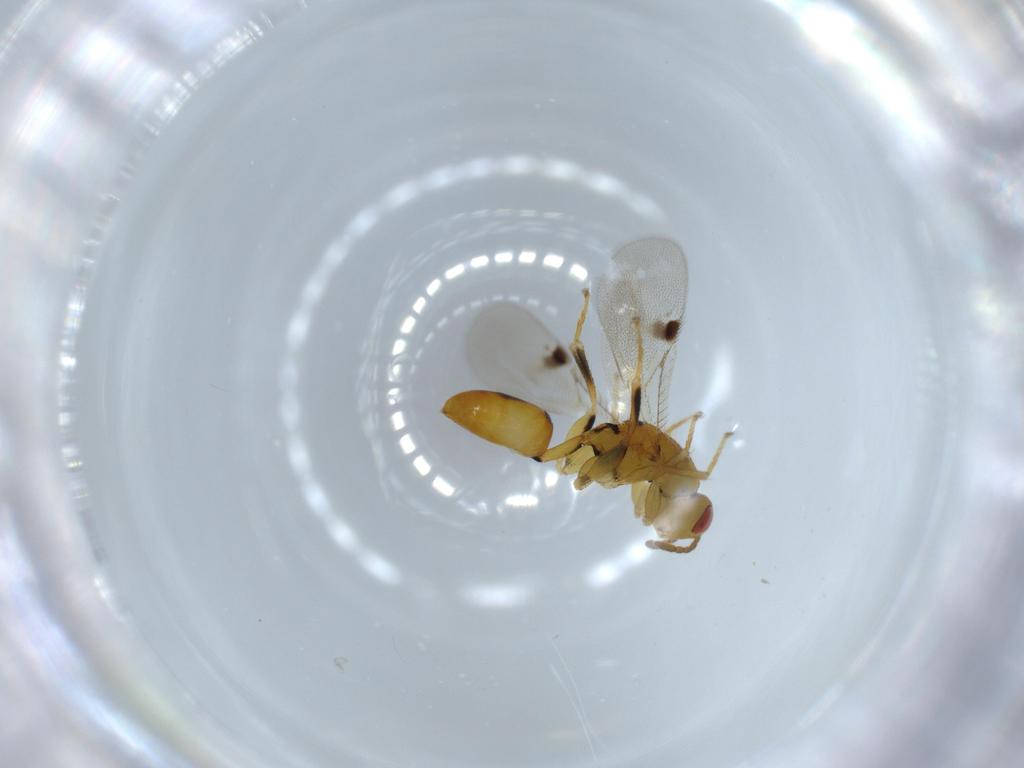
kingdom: Animalia
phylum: Arthropoda
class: Insecta
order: Hymenoptera
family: Eurytomidae
